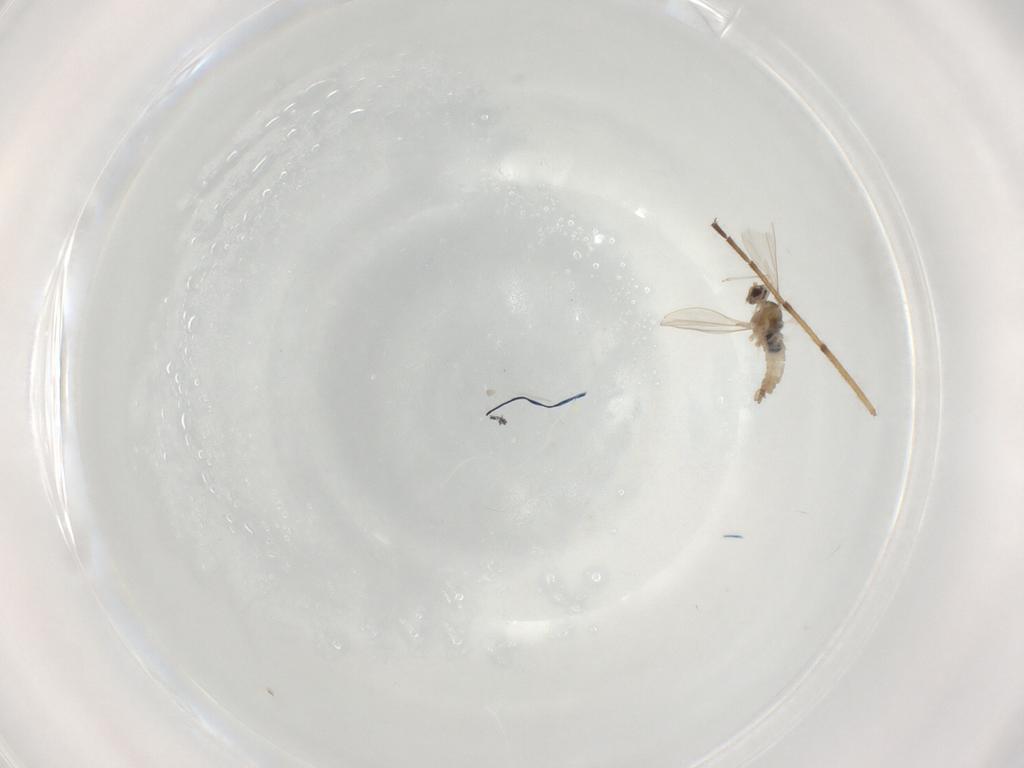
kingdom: Animalia
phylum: Arthropoda
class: Insecta
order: Diptera
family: Cecidomyiidae
